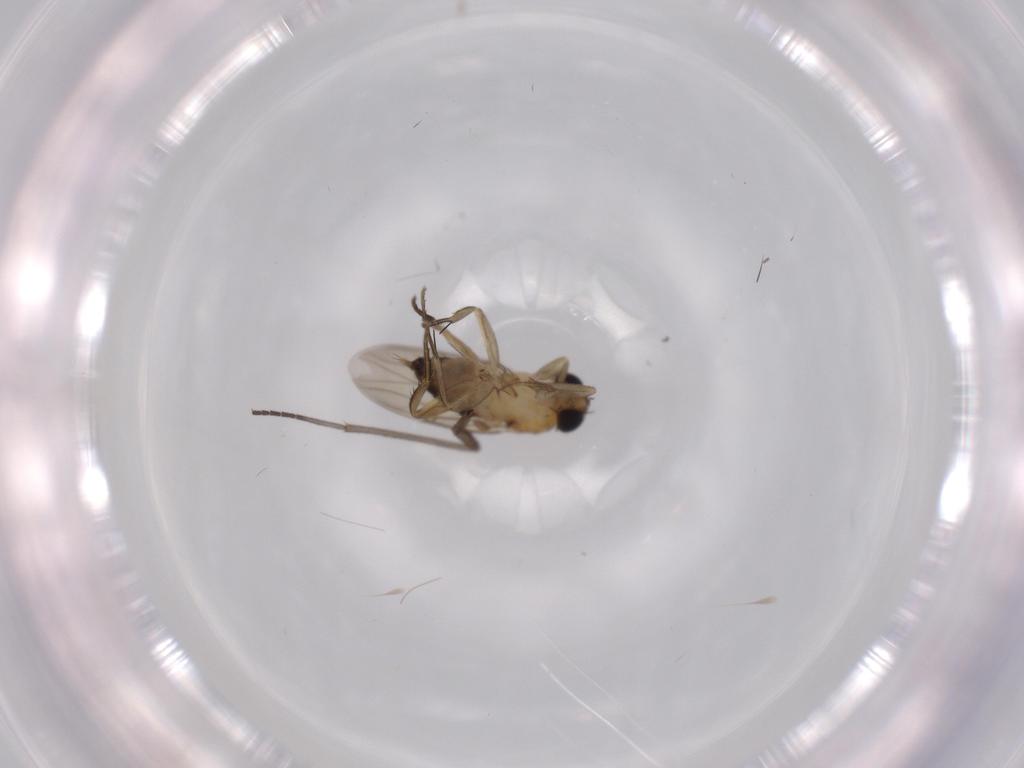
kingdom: Animalia
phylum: Arthropoda
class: Insecta
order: Diptera
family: Phoridae
